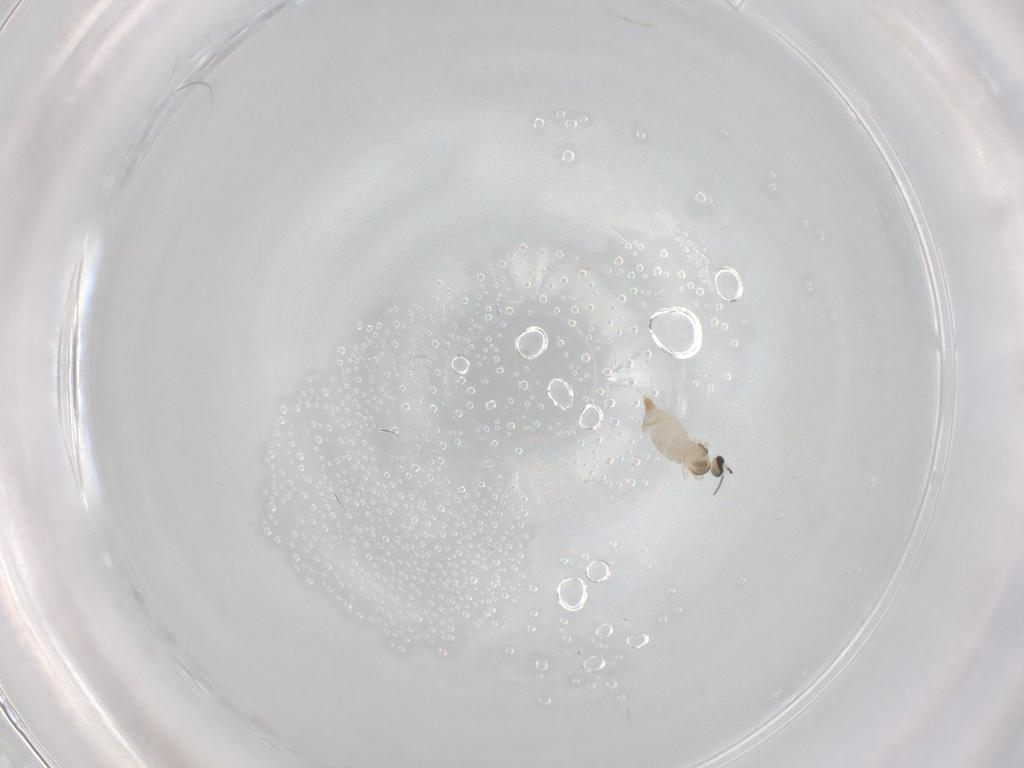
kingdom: Animalia
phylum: Arthropoda
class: Insecta
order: Diptera
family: Cecidomyiidae
